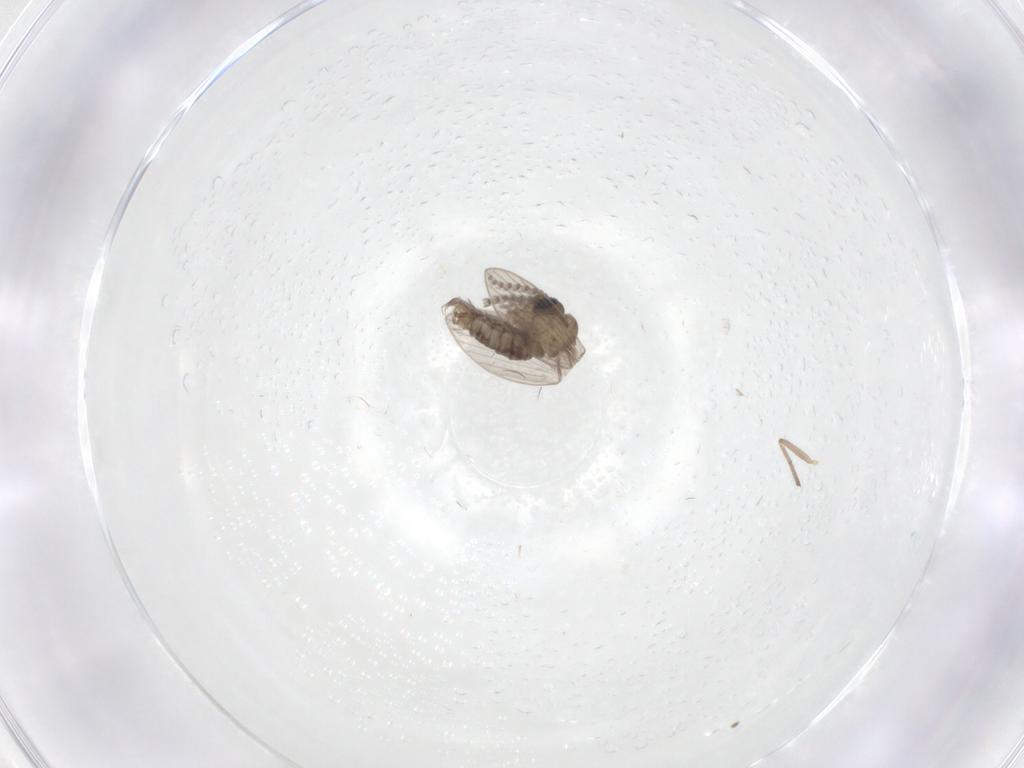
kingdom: Animalia
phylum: Arthropoda
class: Insecta
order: Diptera
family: Psychodidae
